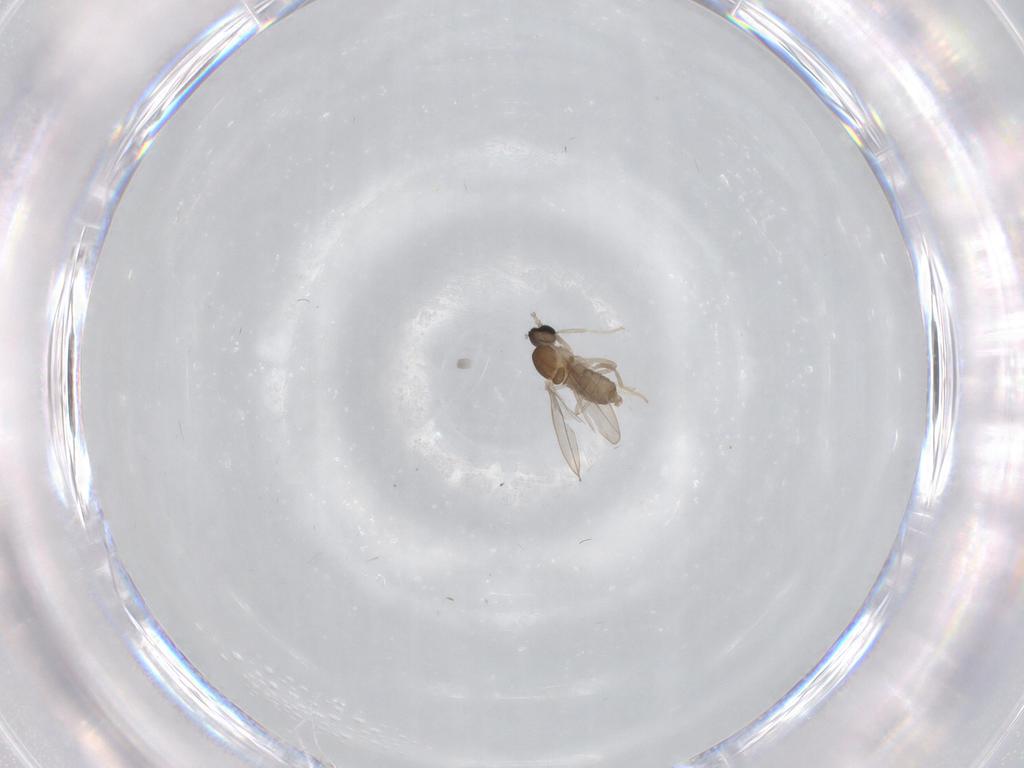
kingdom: Animalia
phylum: Arthropoda
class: Insecta
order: Diptera
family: Cecidomyiidae
